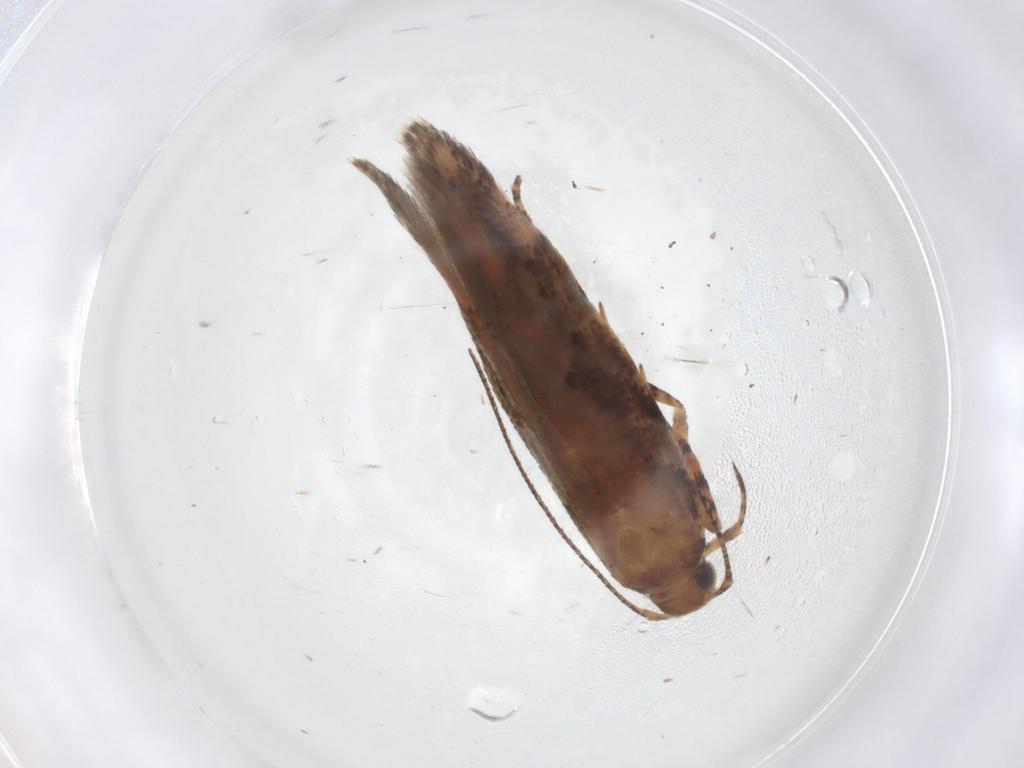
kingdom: Animalia
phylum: Arthropoda
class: Insecta
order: Lepidoptera
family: Gelechiidae
